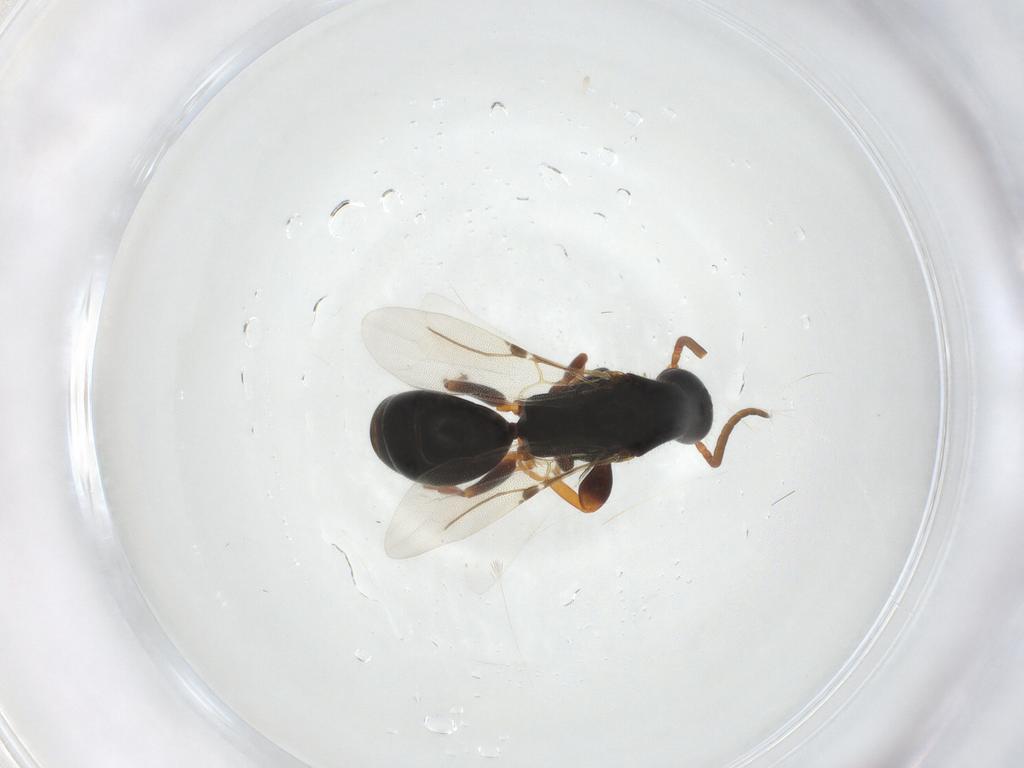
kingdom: Animalia
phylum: Arthropoda
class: Insecta
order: Hymenoptera
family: Bethylidae
